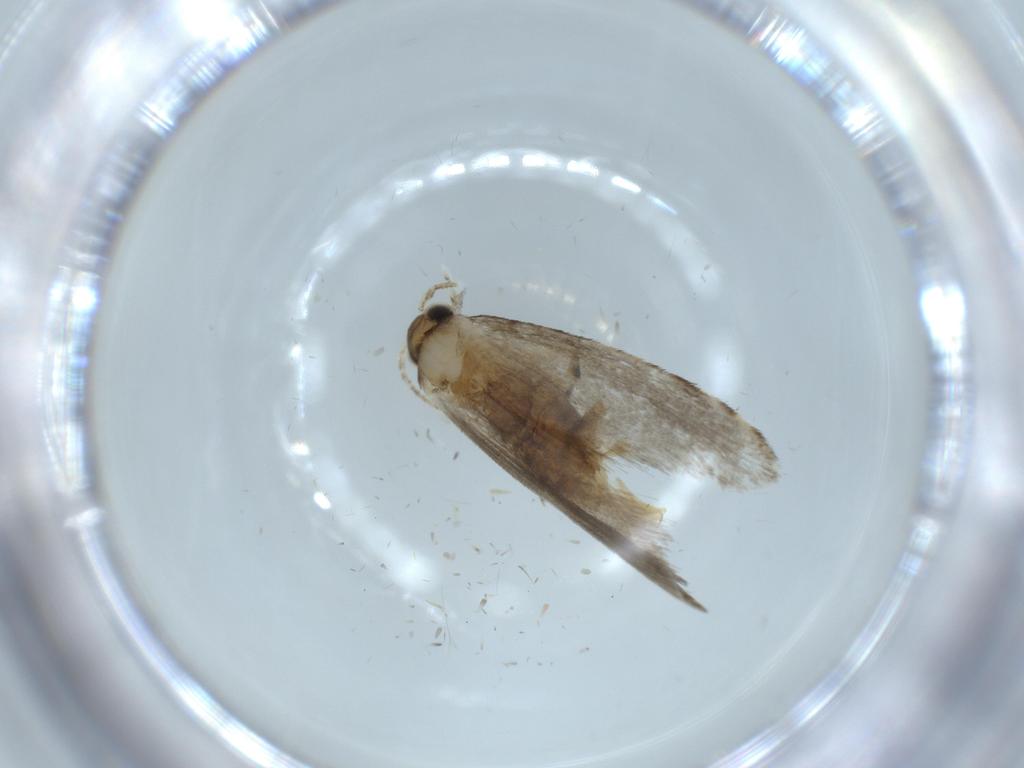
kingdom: Animalia
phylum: Arthropoda
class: Insecta
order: Lepidoptera
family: Tineidae
